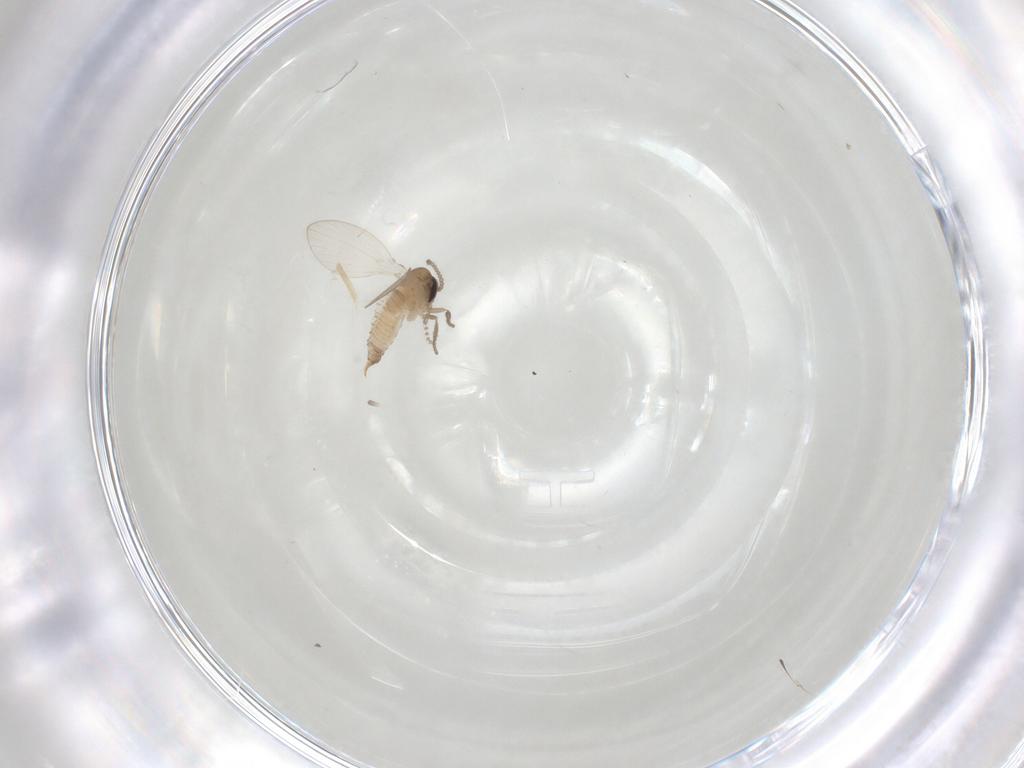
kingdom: Animalia
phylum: Arthropoda
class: Insecta
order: Diptera
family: Psychodidae
